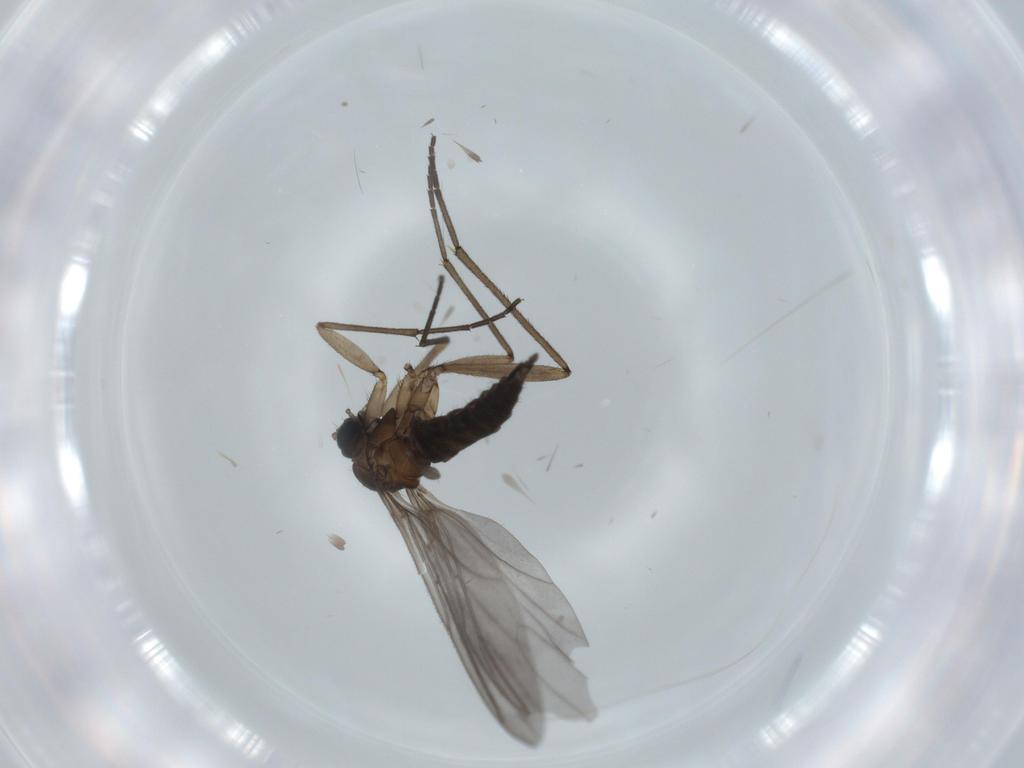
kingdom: Animalia
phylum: Arthropoda
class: Insecta
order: Diptera
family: Sciaridae
